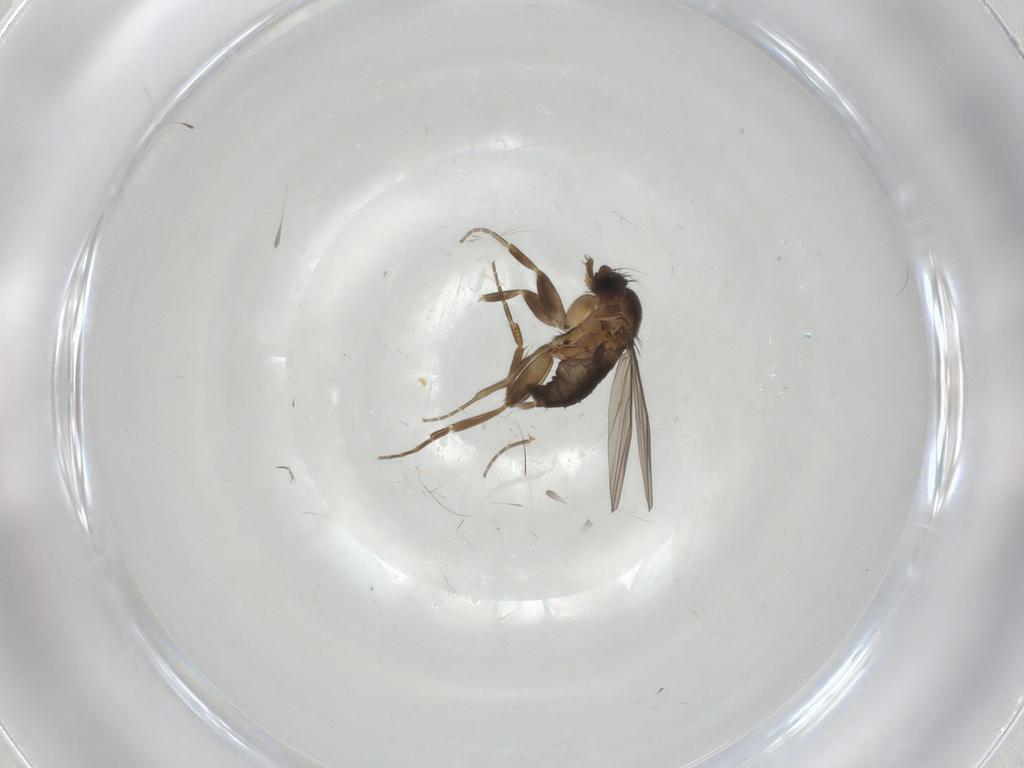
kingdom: Animalia
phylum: Arthropoda
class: Insecta
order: Diptera
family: Phoridae
